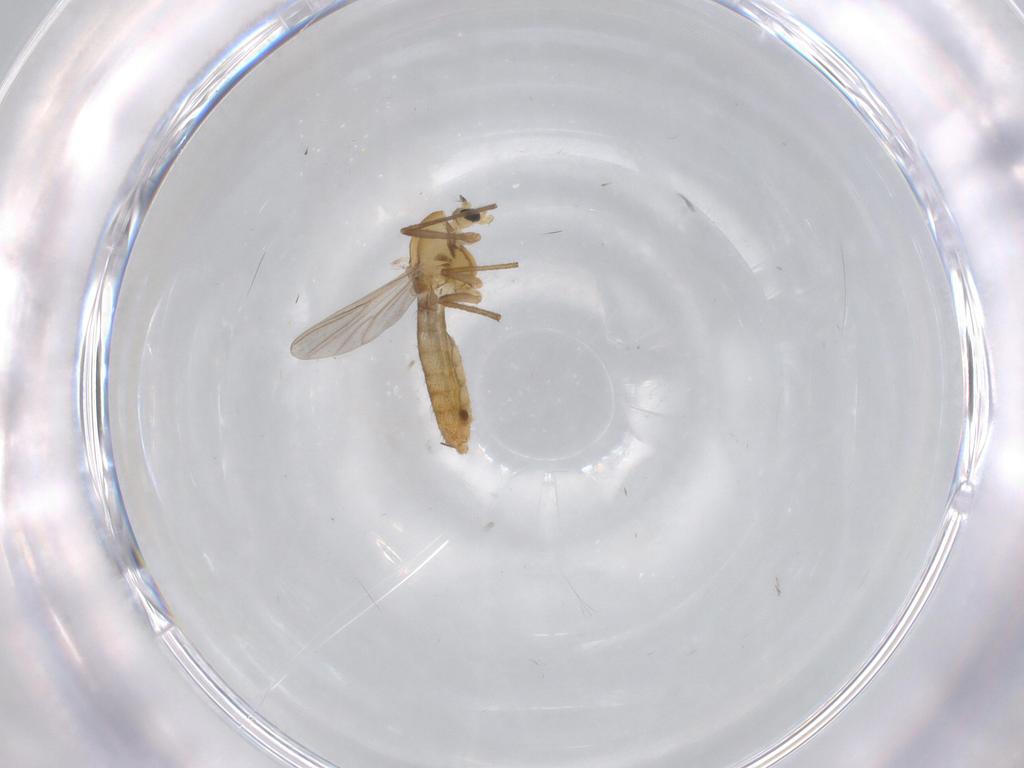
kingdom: Animalia
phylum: Arthropoda
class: Insecta
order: Diptera
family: Chironomidae
